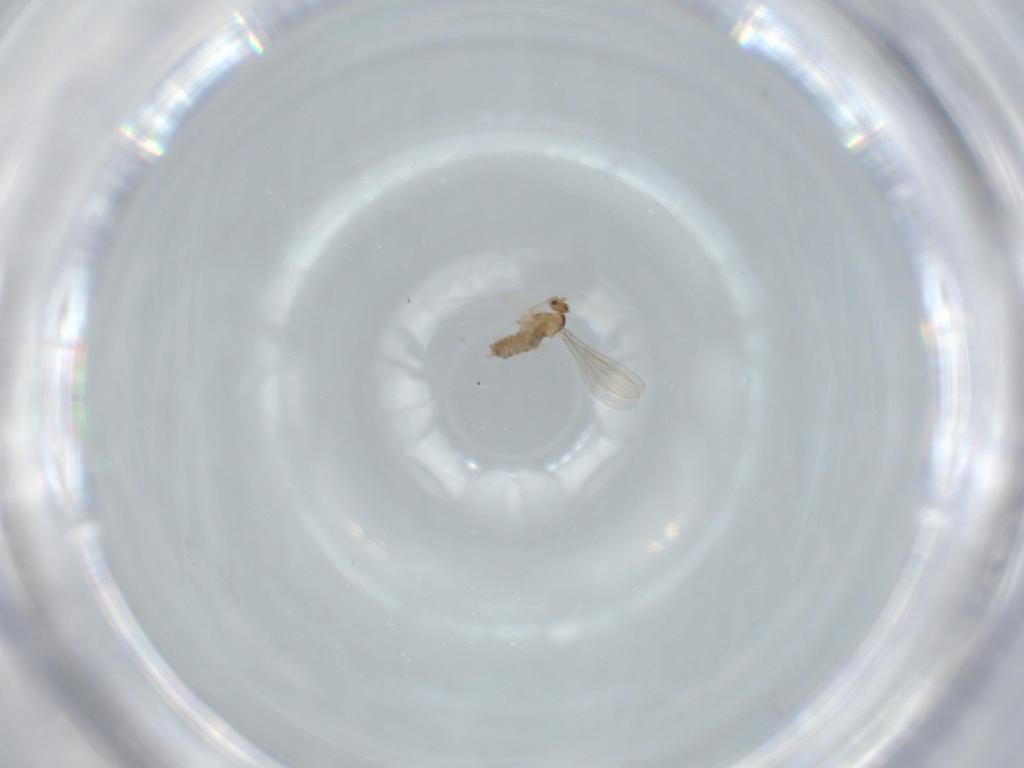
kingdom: Animalia
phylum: Arthropoda
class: Insecta
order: Diptera
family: Cecidomyiidae
